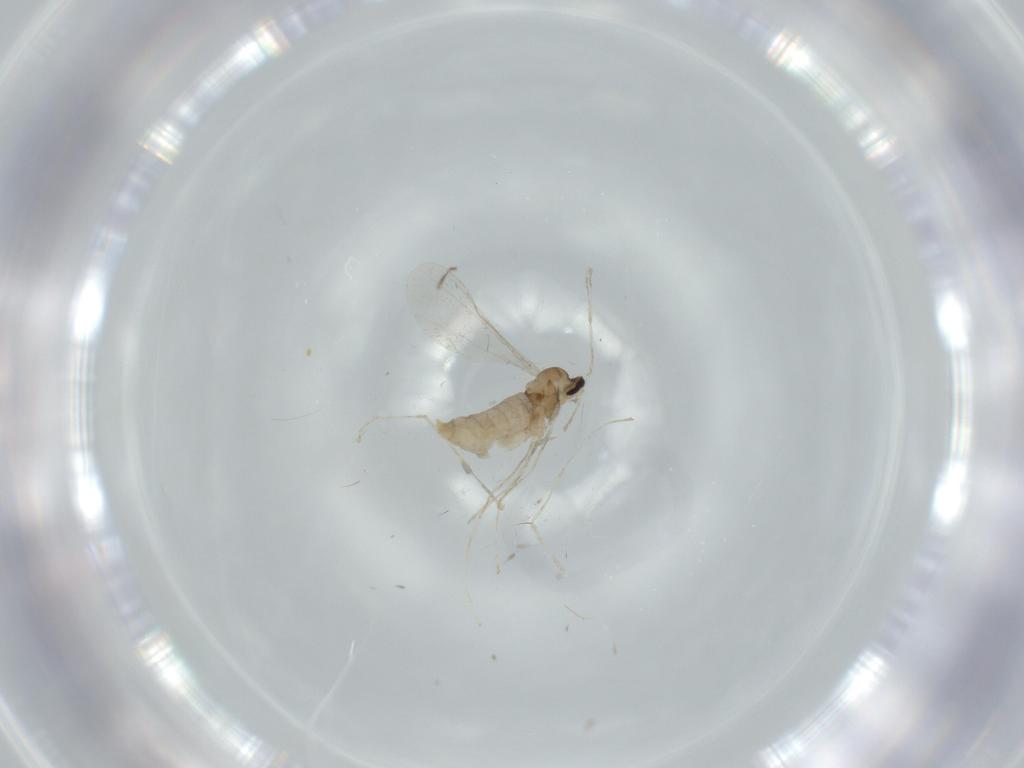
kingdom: Animalia
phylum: Arthropoda
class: Insecta
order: Diptera
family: Cecidomyiidae
